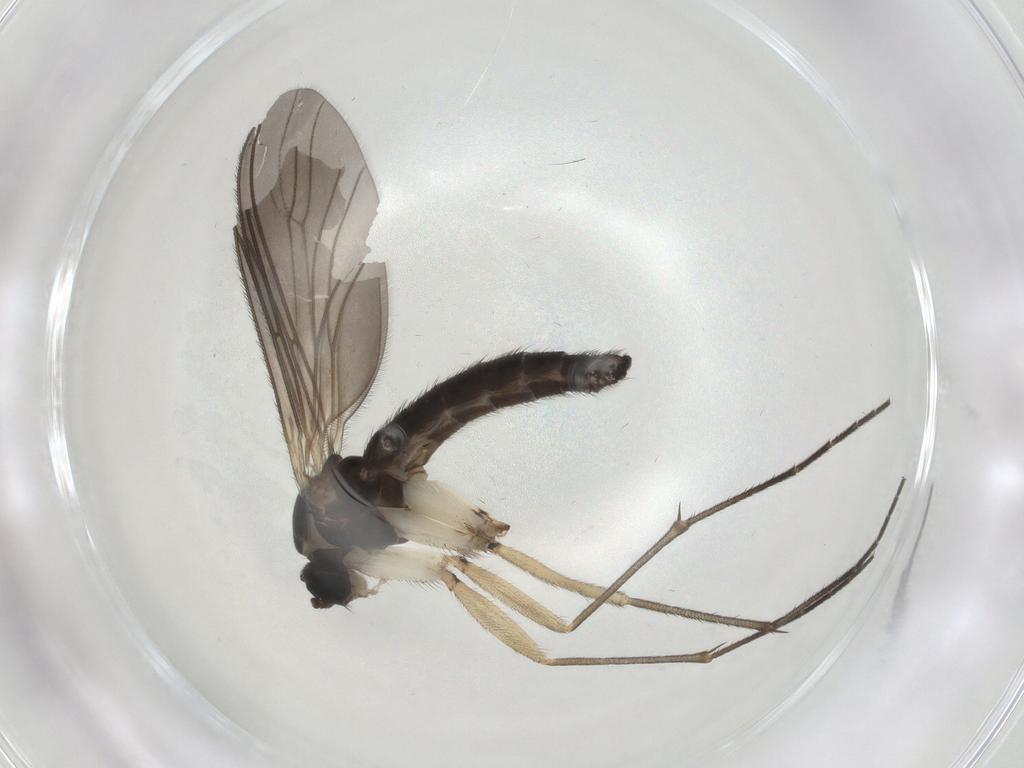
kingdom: Animalia
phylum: Arthropoda
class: Insecta
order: Diptera
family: Sciaridae
